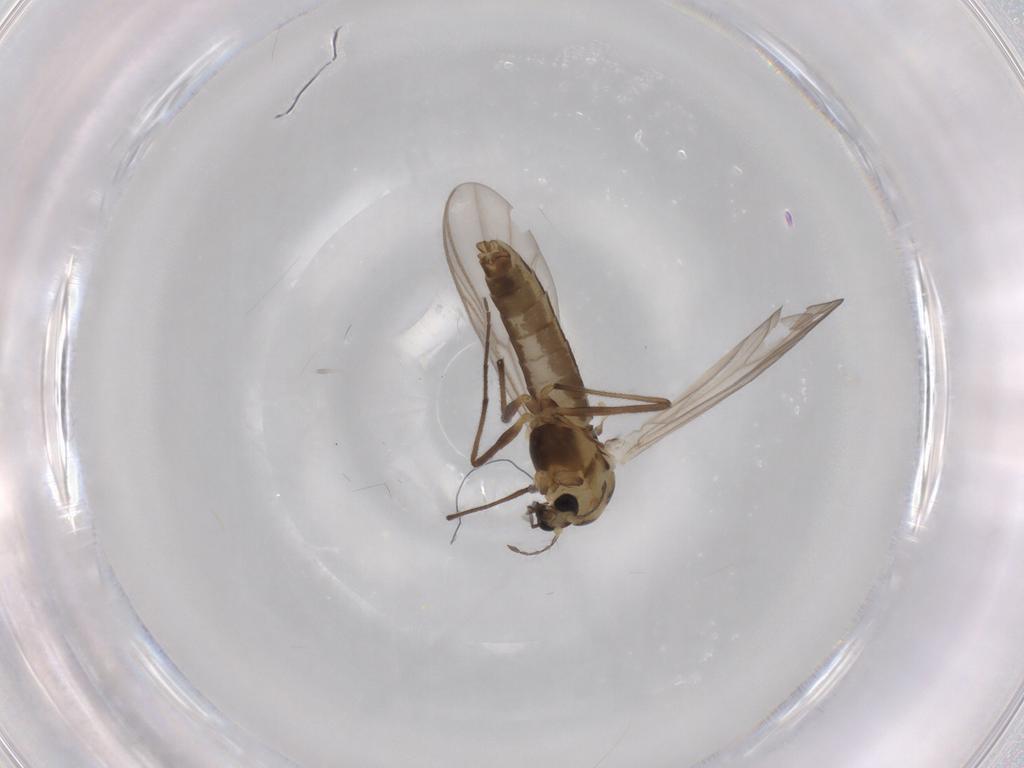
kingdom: Animalia
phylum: Arthropoda
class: Insecta
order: Diptera
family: Chironomidae
